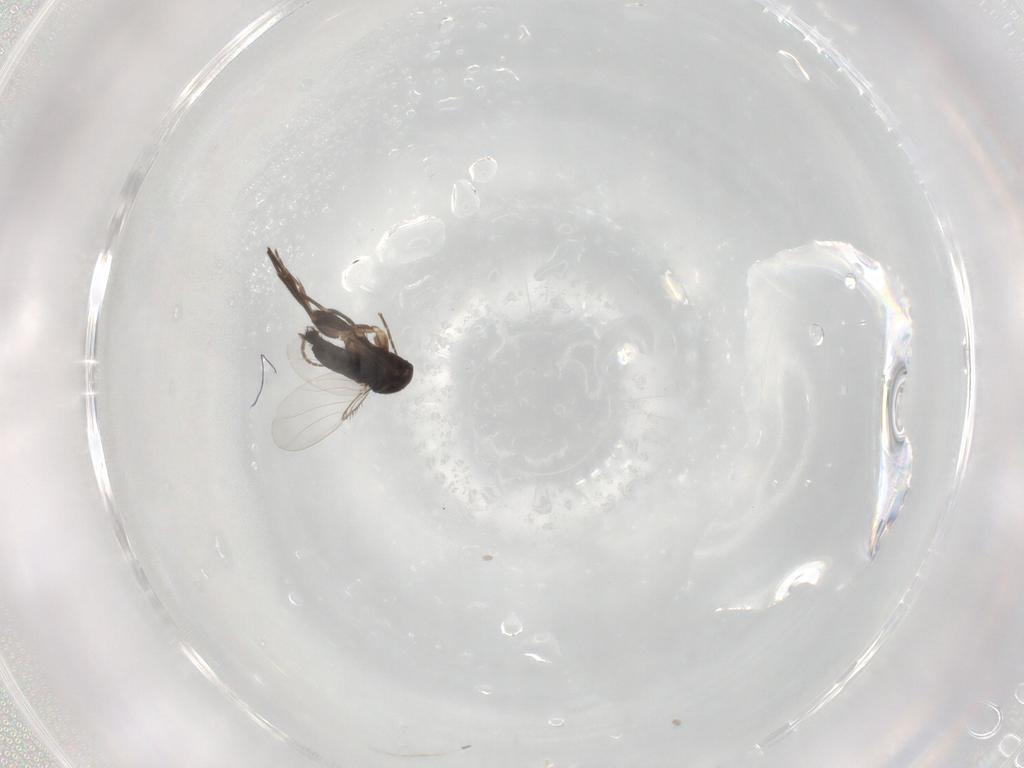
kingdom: Animalia
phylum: Arthropoda
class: Insecta
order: Diptera
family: Phoridae
